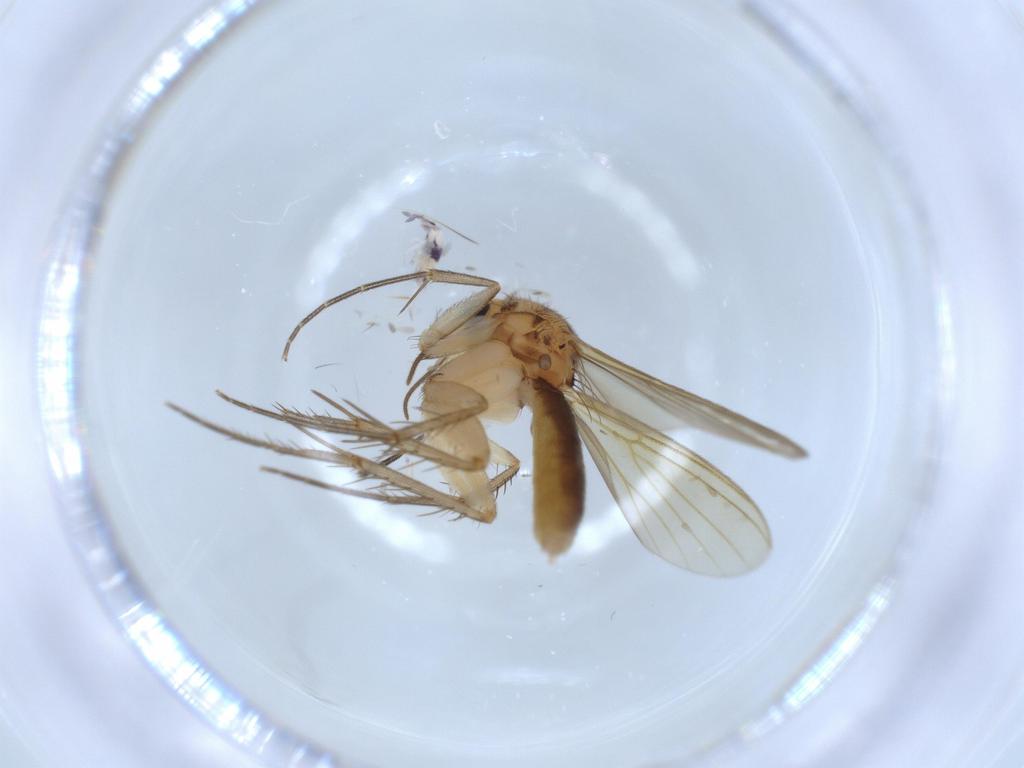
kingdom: Animalia
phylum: Arthropoda
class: Insecta
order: Diptera
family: Mycetophilidae
